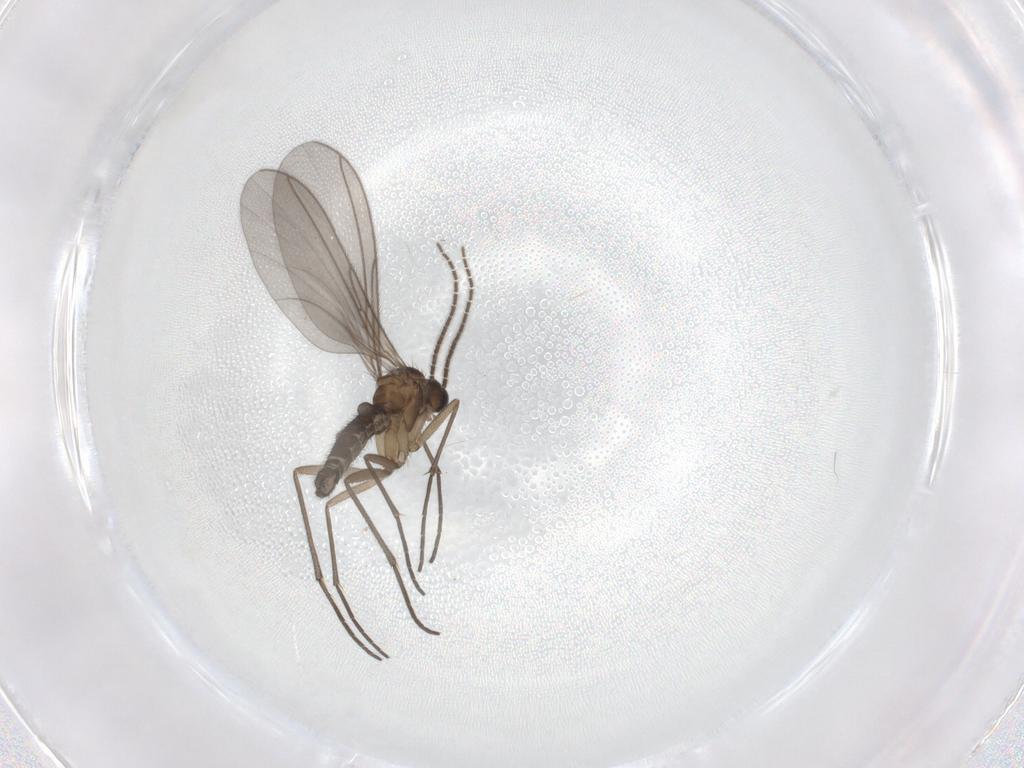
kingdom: Animalia
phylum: Arthropoda
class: Insecta
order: Diptera
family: Sciaridae
